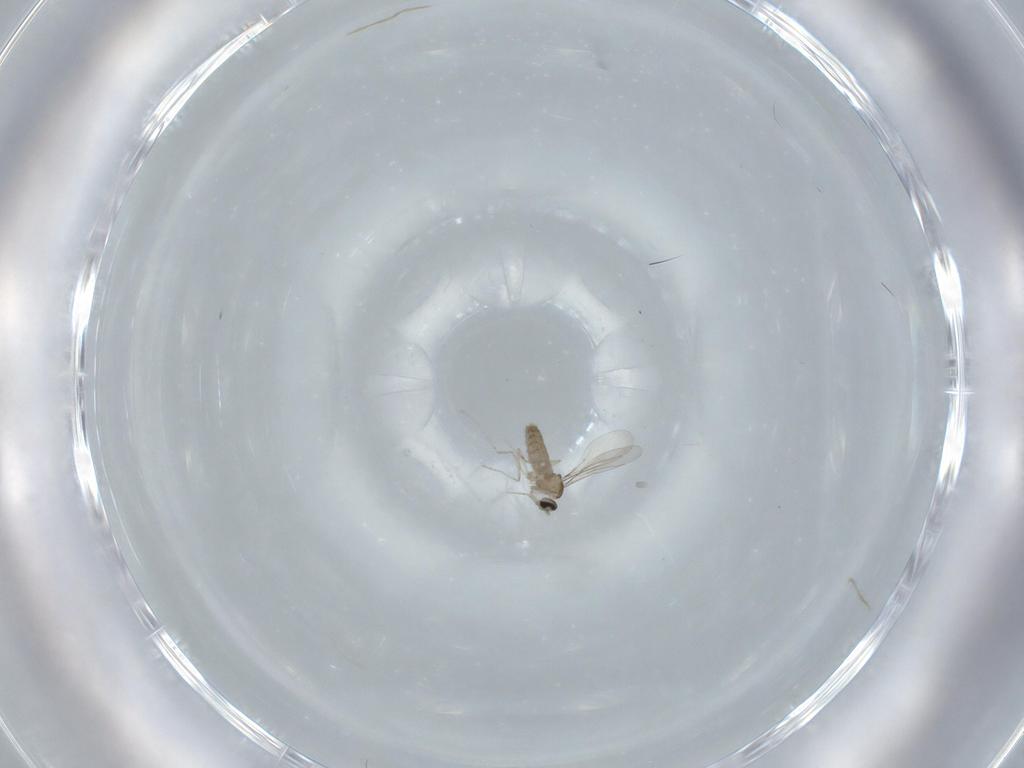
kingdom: Animalia
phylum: Arthropoda
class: Insecta
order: Diptera
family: Cecidomyiidae
